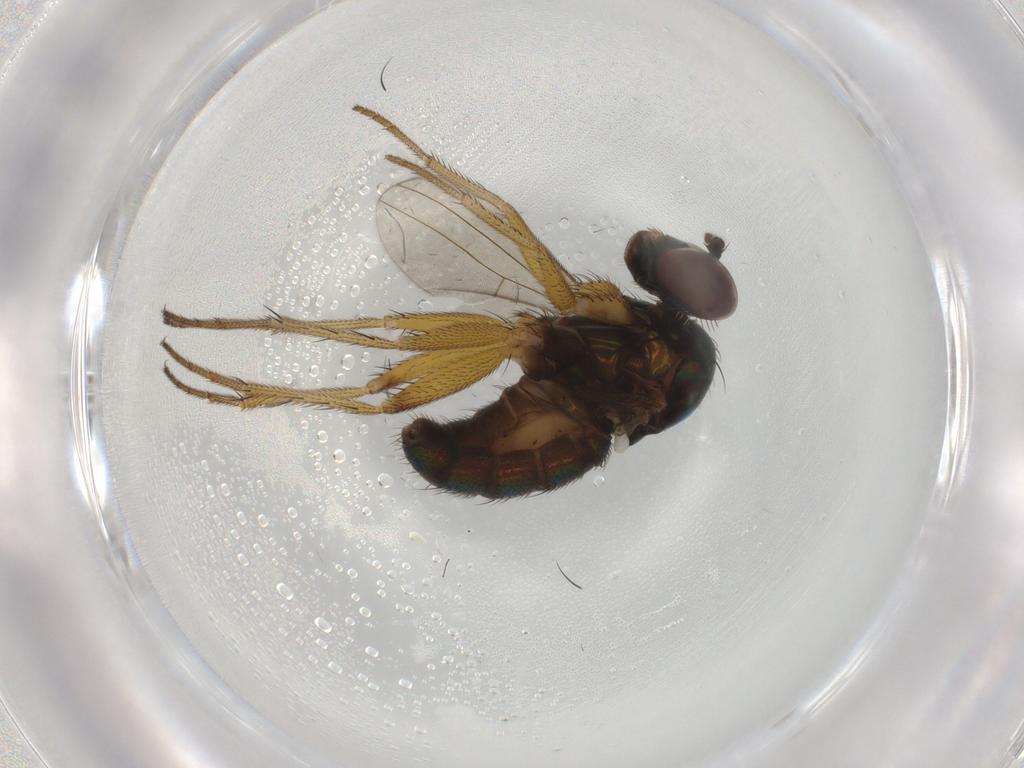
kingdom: Animalia
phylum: Arthropoda
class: Insecta
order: Diptera
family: Dolichopodidae
